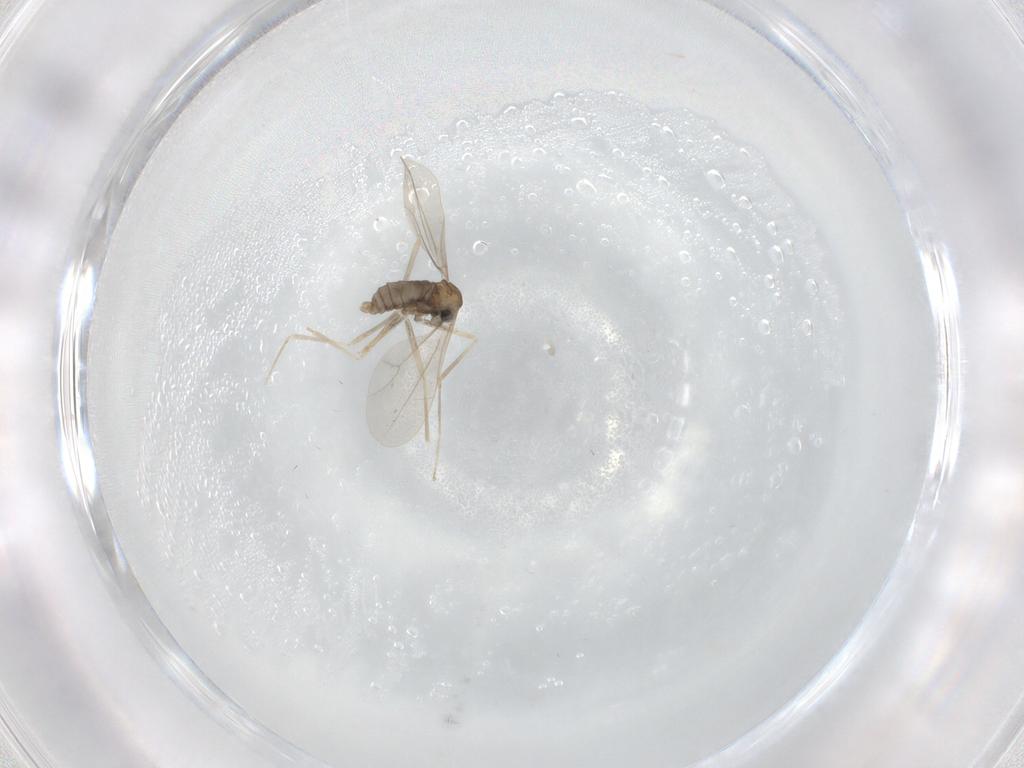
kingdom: Animalia
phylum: Arthropoda
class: Insecta
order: Diptera
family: Cecidomyiidae
